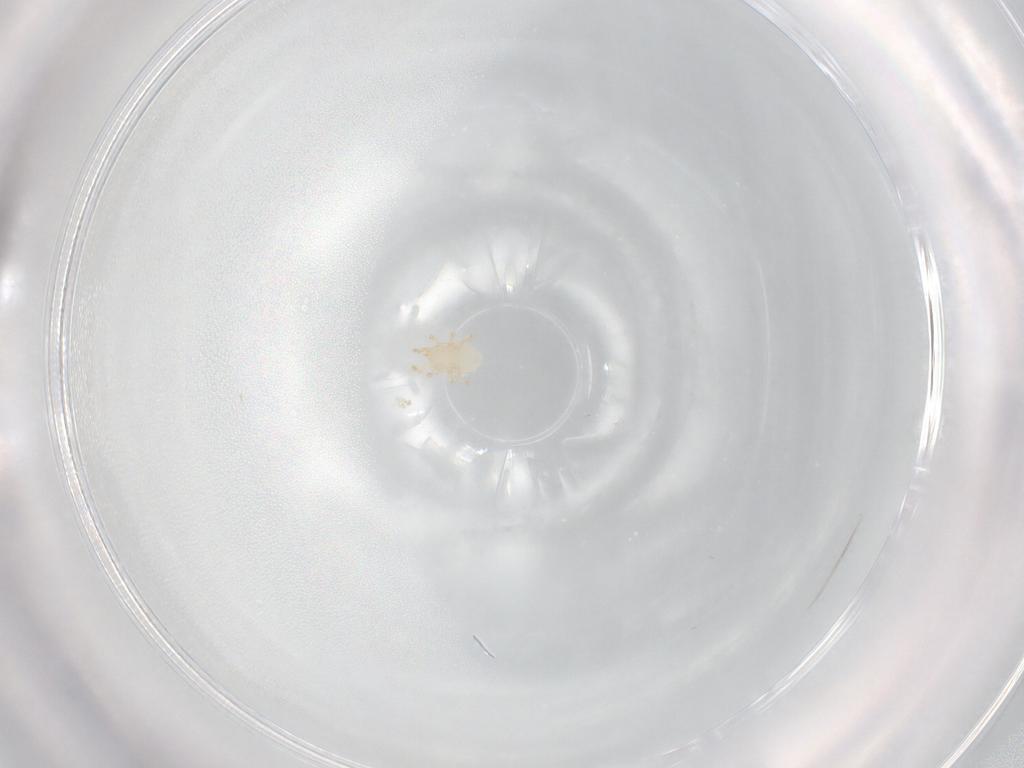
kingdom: Animalia
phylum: Arthropoda
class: Arachnida
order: Mesostigmata
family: Melicharidae
